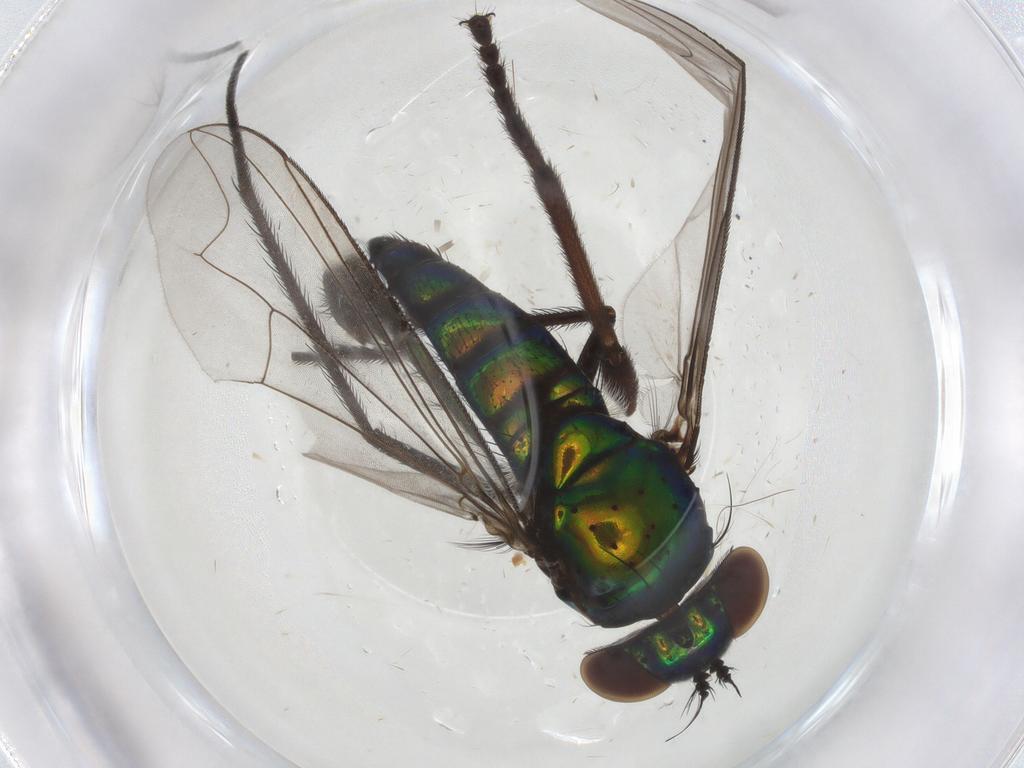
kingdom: Animalia
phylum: Arthropoda
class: Insecta
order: Diptera
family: Dolichopodidae
